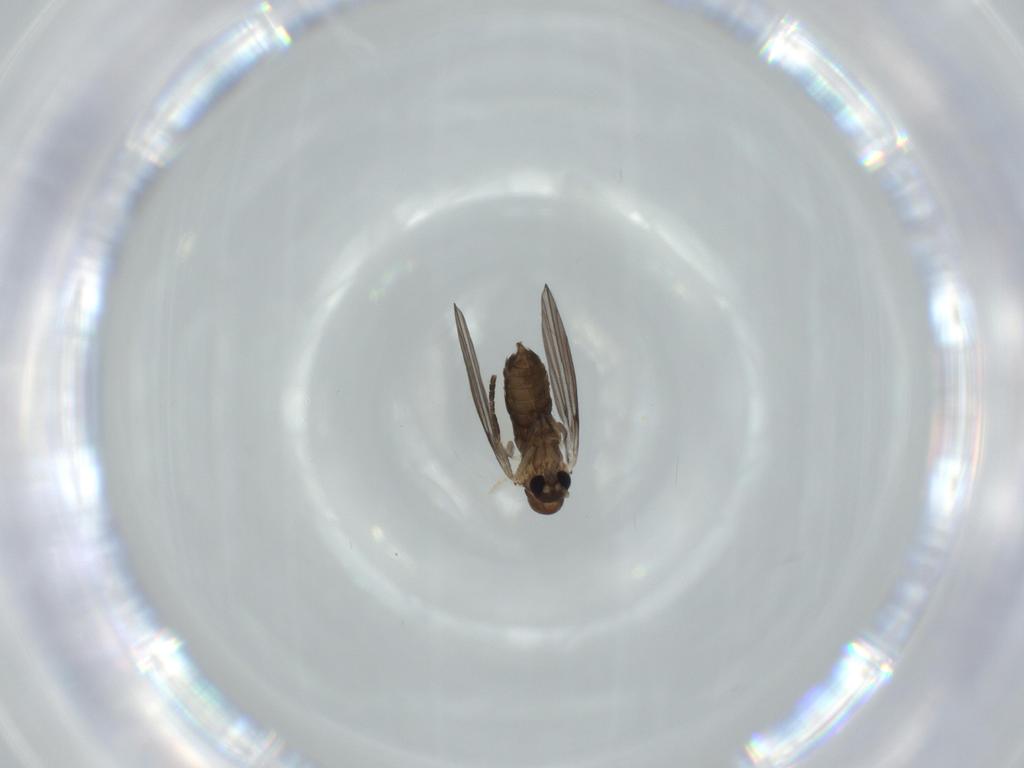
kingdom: Animalia
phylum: Arthropoda
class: Insecta
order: Diptera
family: Psychodidae
